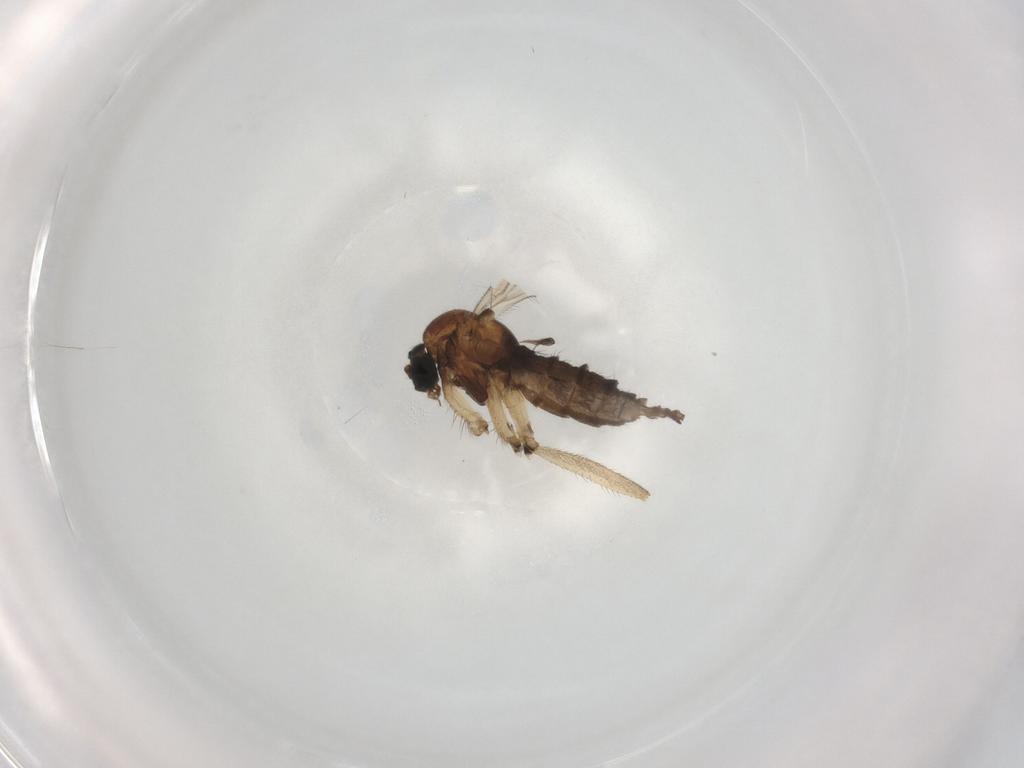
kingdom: Animalia
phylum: Arthropoda
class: Insecta
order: Diptera
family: Sciaridae
